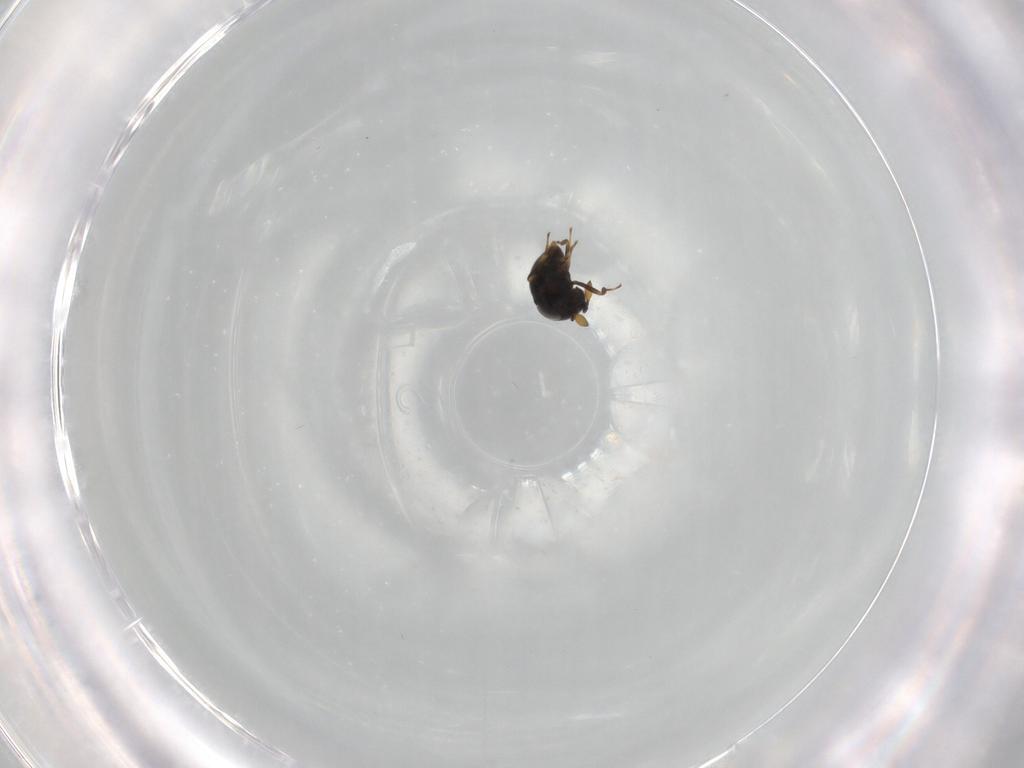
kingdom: Animalia
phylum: Arthropoda
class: Insecta
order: Hymenoptera
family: Scelionidae
